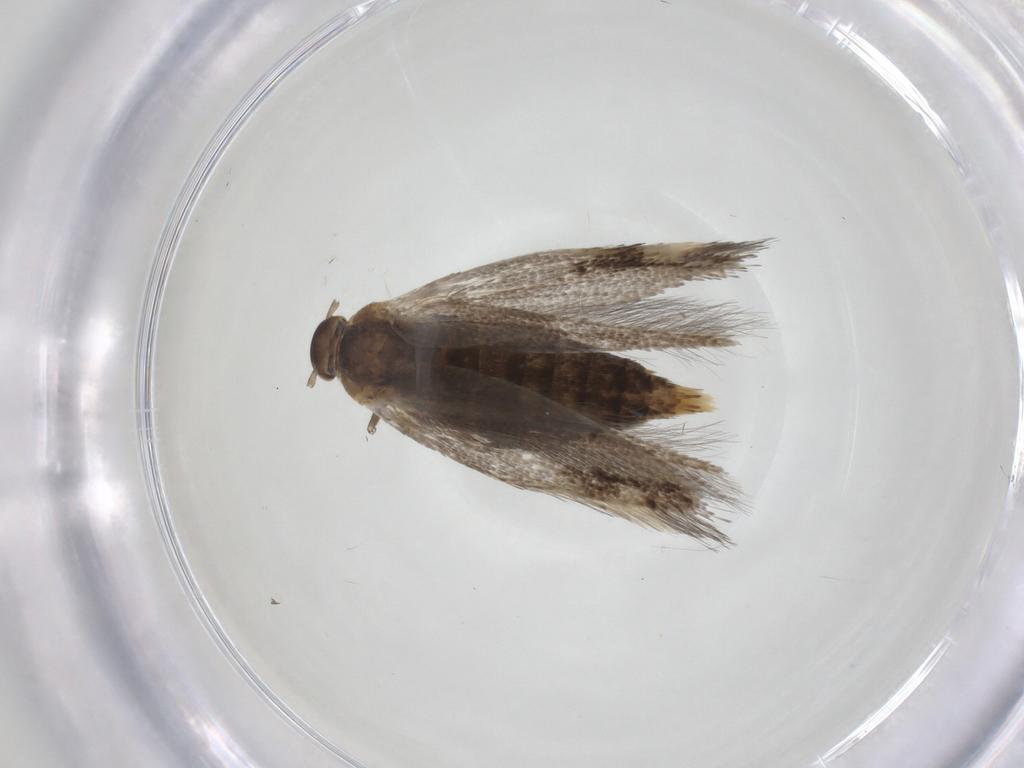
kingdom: Animalia
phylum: Arthropoda
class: Insecta
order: Lepidoptera
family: Elachistidae
